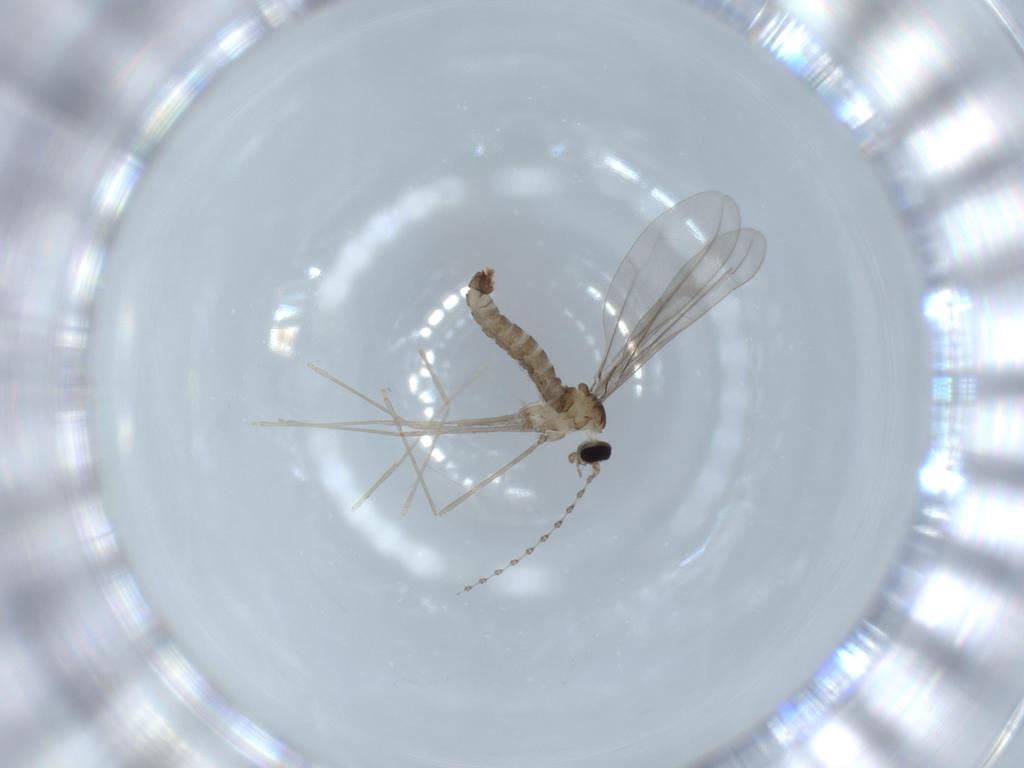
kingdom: Animalia
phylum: Arthropoda
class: Insecta
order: Diptera
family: Cecidomyiidae
